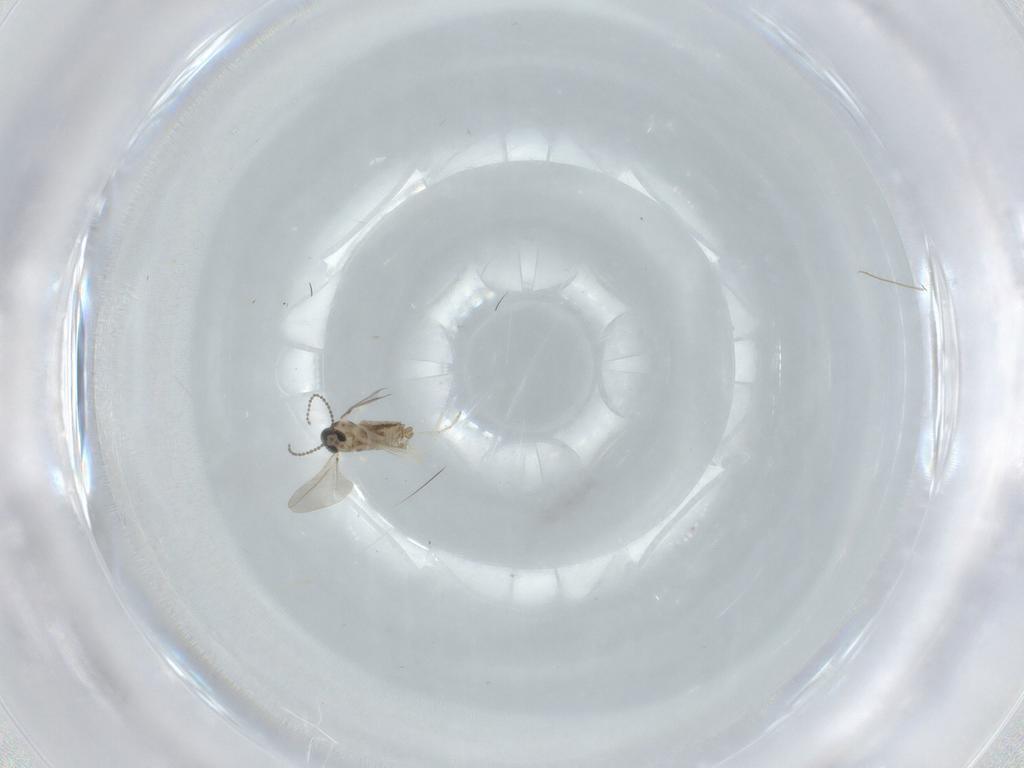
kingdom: Animalia
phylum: Arthropoda
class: Insecta
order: Diptera
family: Cecidomyiidae
